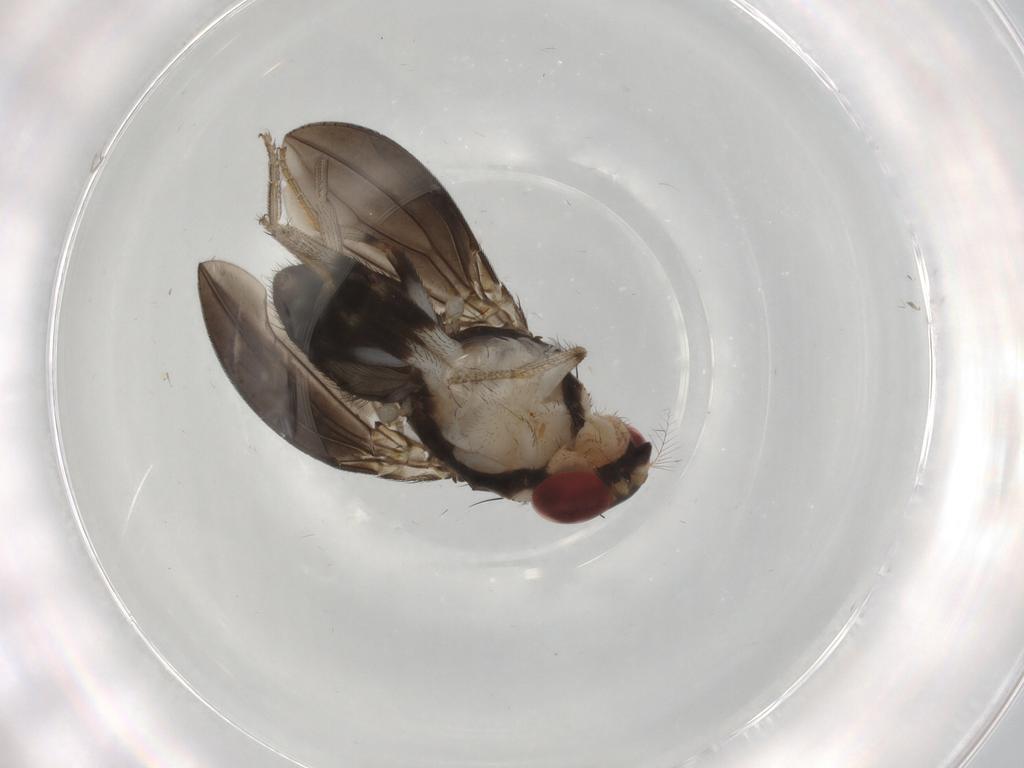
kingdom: Animalia
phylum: Arthropoda
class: Insecta
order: Diptera
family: Drosophilidae
